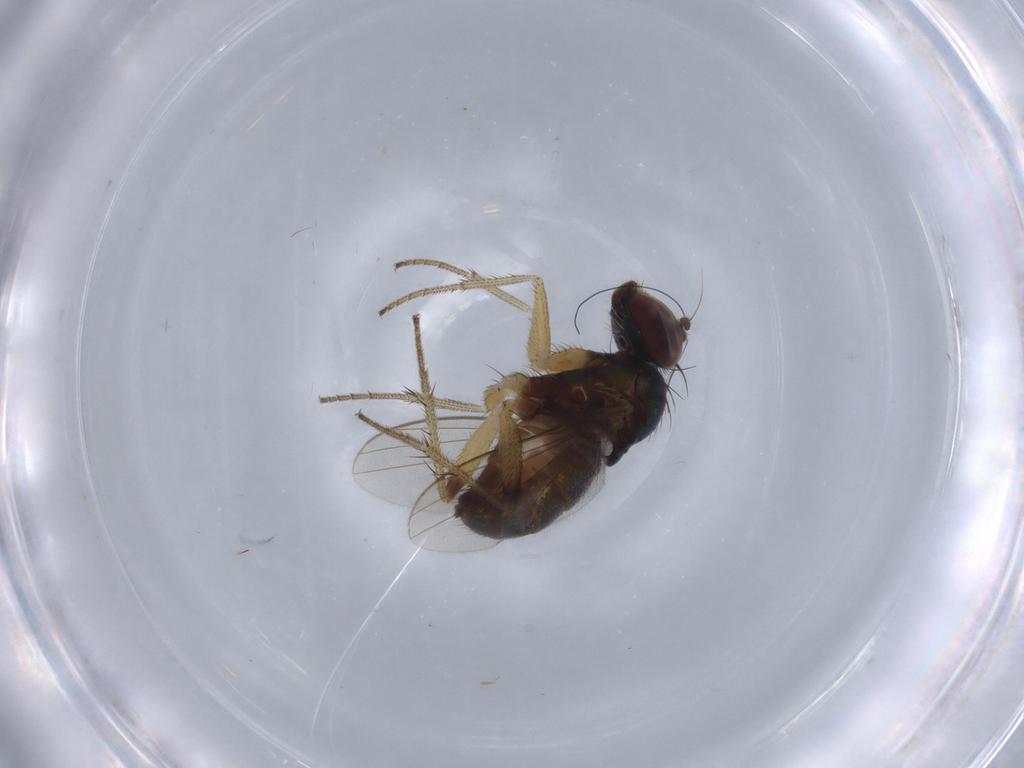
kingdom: Animalia
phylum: Arthropoda
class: Insecta
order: Diptera
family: Dolichopodidae
